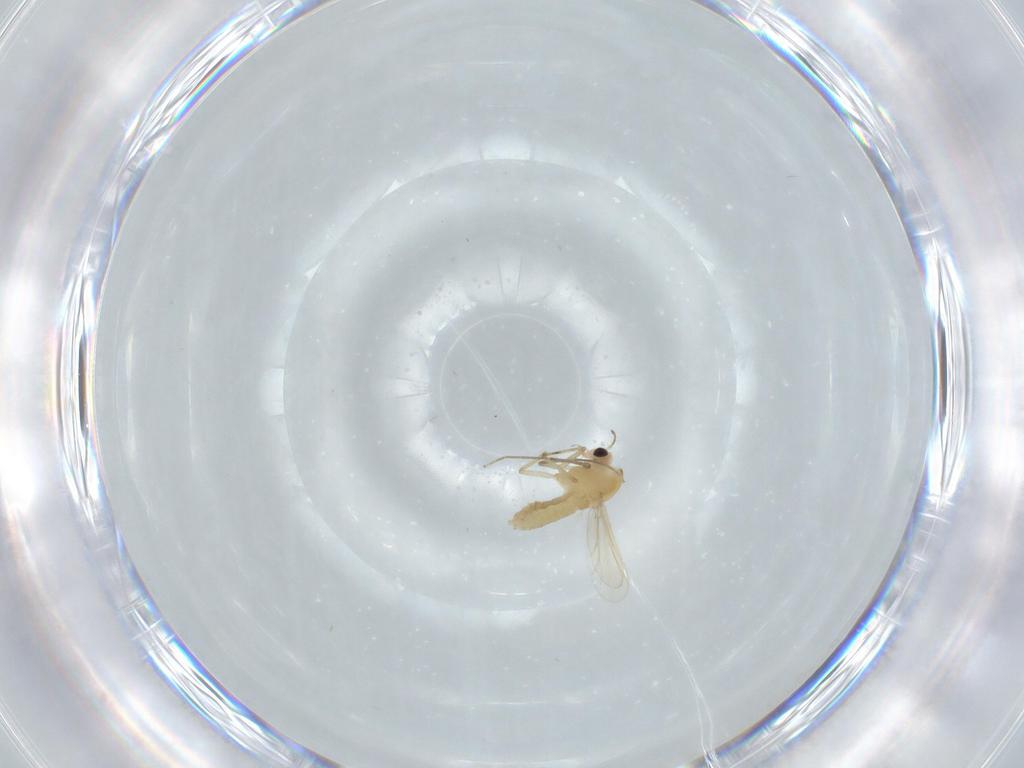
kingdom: Animalia
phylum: Arthropoda
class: Insecta
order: Diptera
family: Chironomidae
